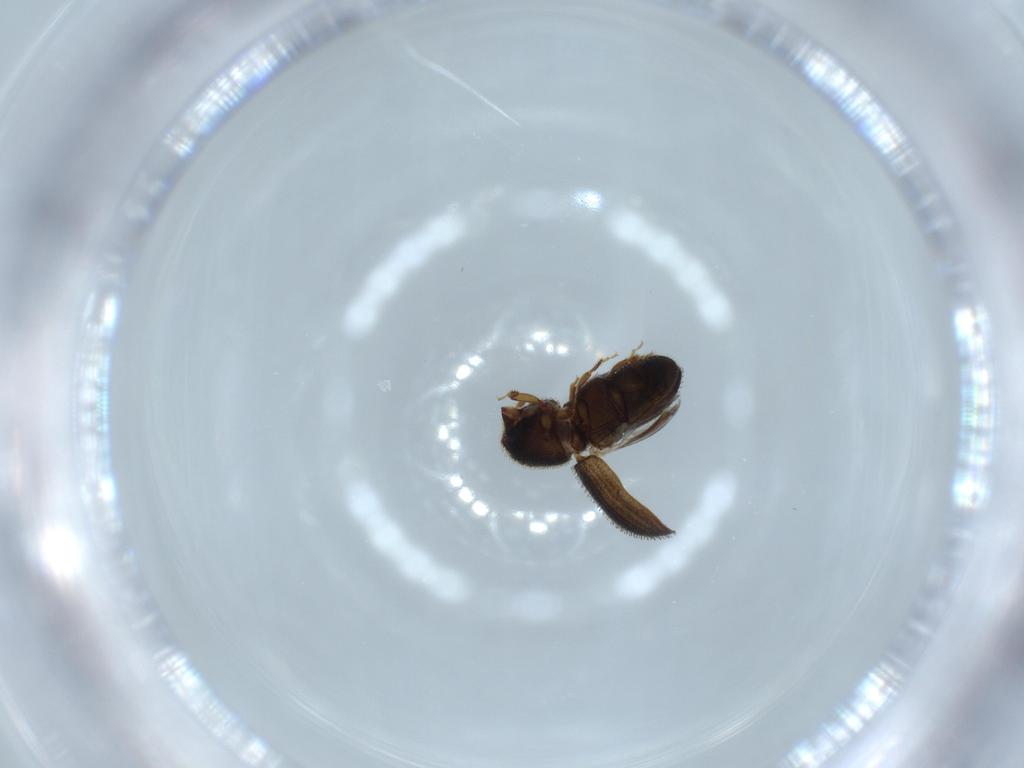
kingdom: Animalia
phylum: Arthropoda
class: Insecta
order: Coleoptera
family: Curculionidae
